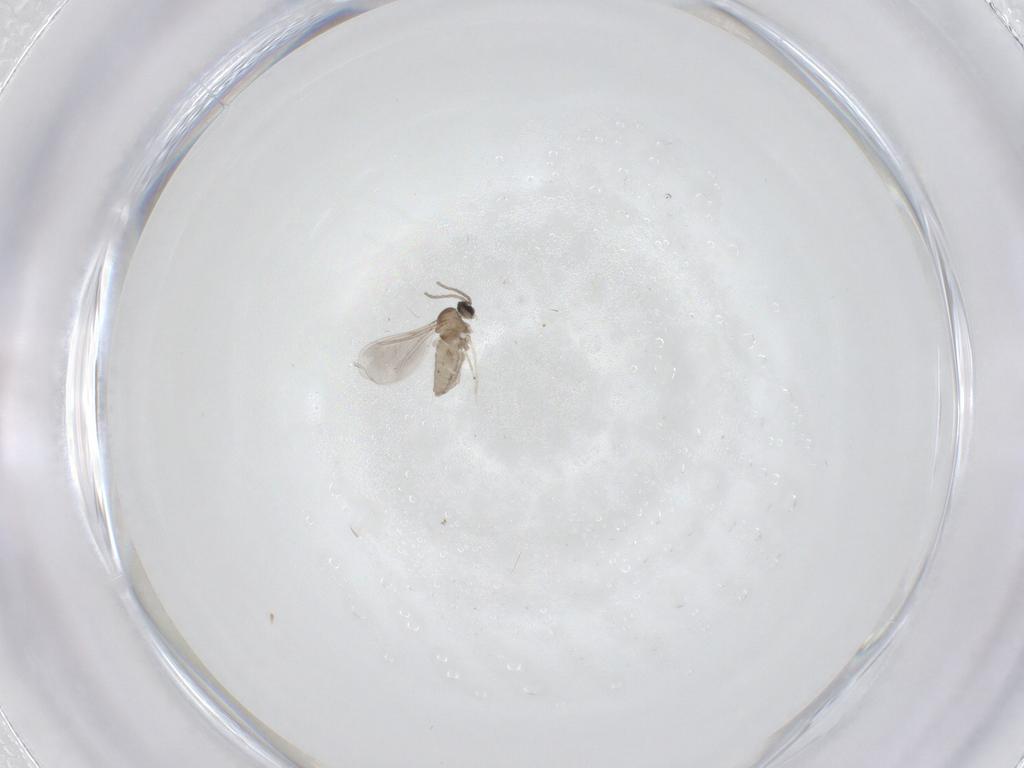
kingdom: Animalia
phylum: Arthropoda
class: Insecta
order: Diptera
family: Cecidomyiidae
